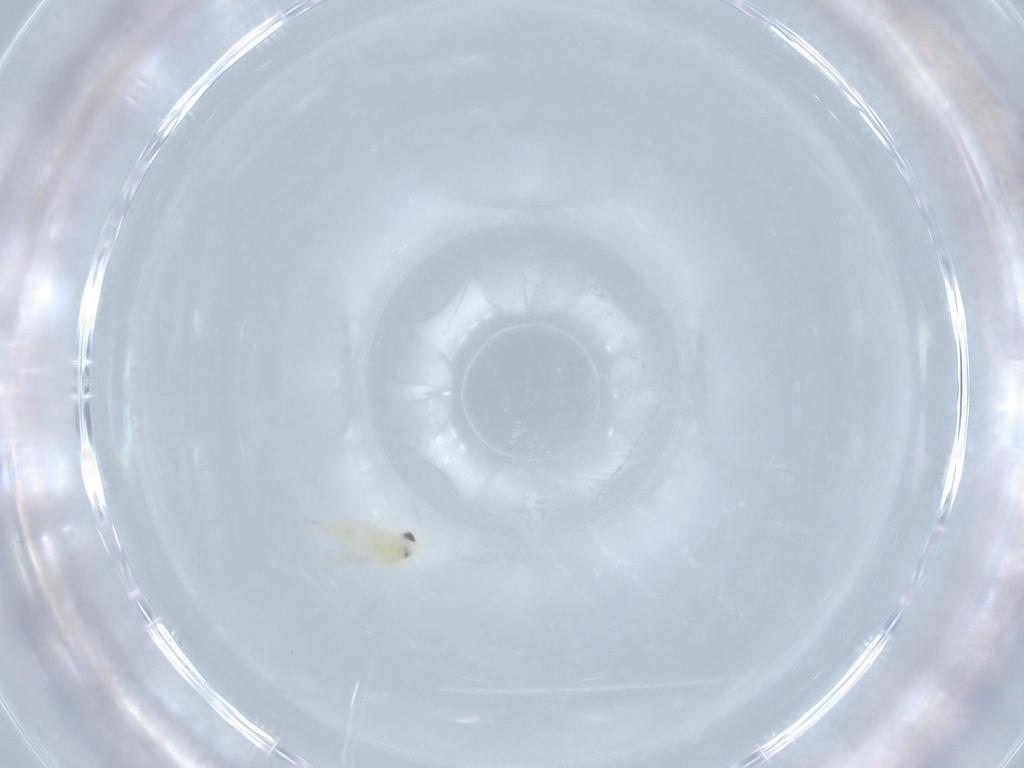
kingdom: Animalia
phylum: Arthropoda
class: Insecta
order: Hemiptera
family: Aleyrodidae
